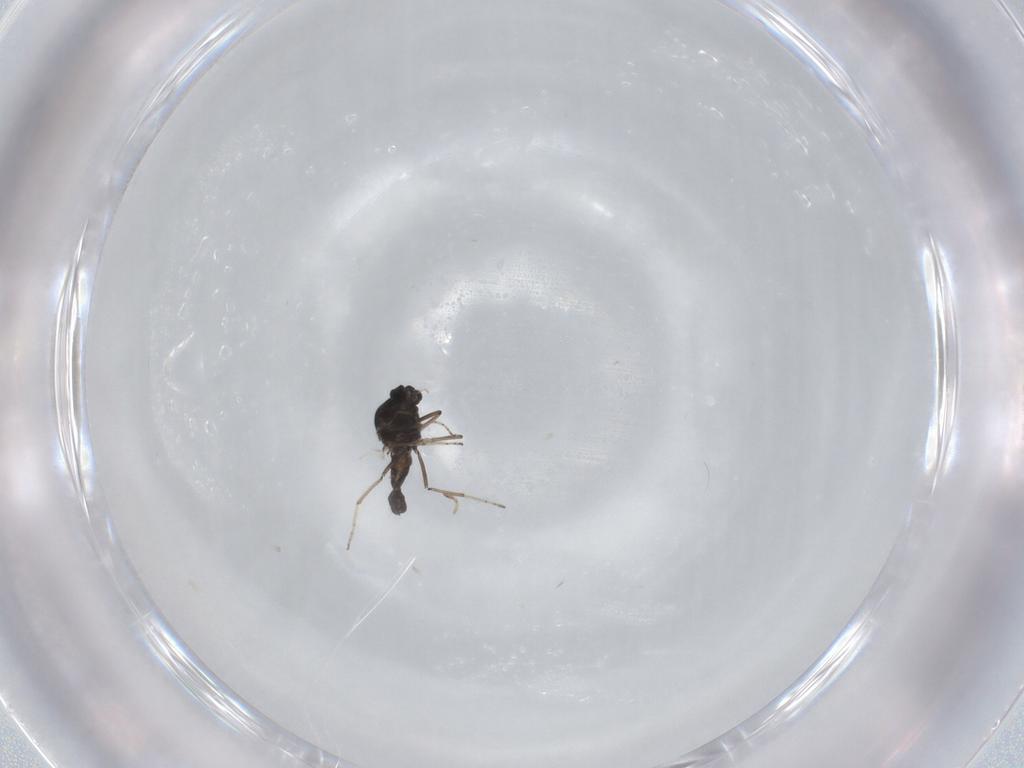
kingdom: Animalia
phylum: Arthropoda
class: Insecta
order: Diptera
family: Ceratopogonidae
